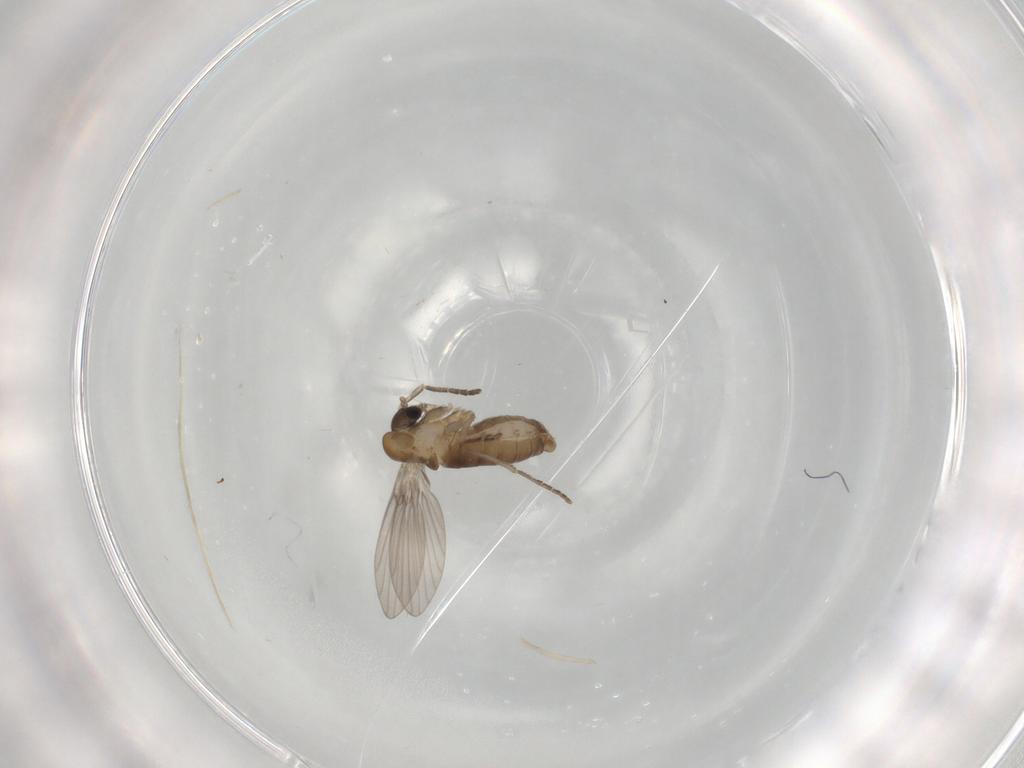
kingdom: Animalia
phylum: Arthropoda
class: Insecta
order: Diptera
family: Psychodidae
